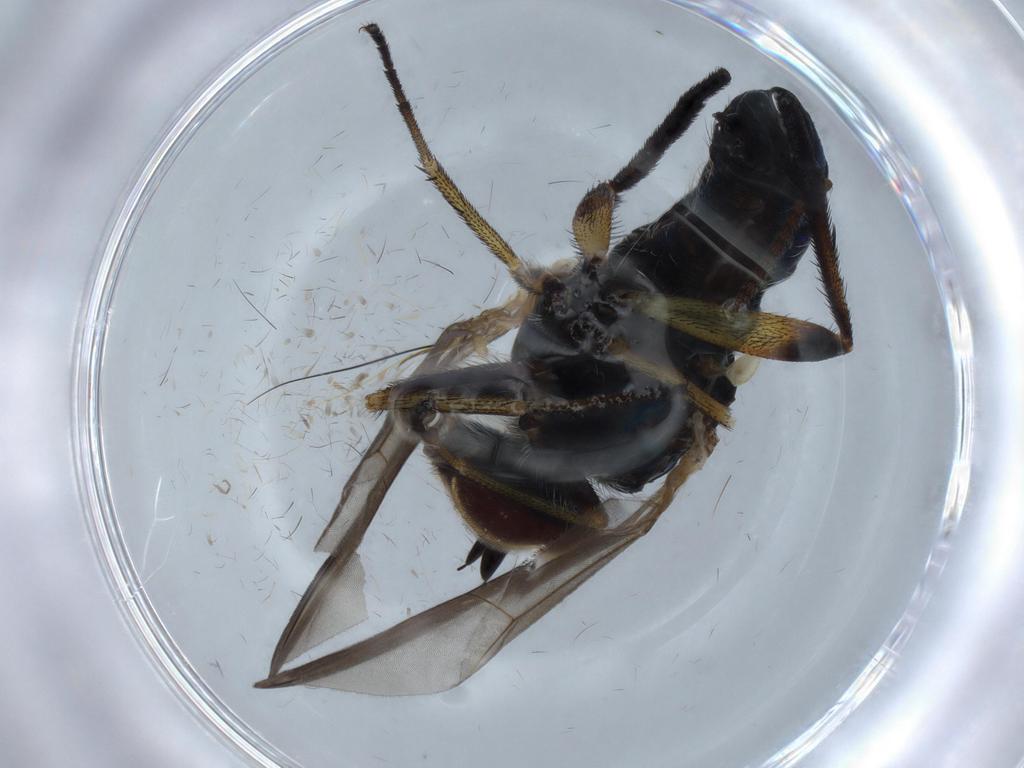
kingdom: Animalia
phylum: Arthropoda
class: Insecta
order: Diptera
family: Dolichopodidae
